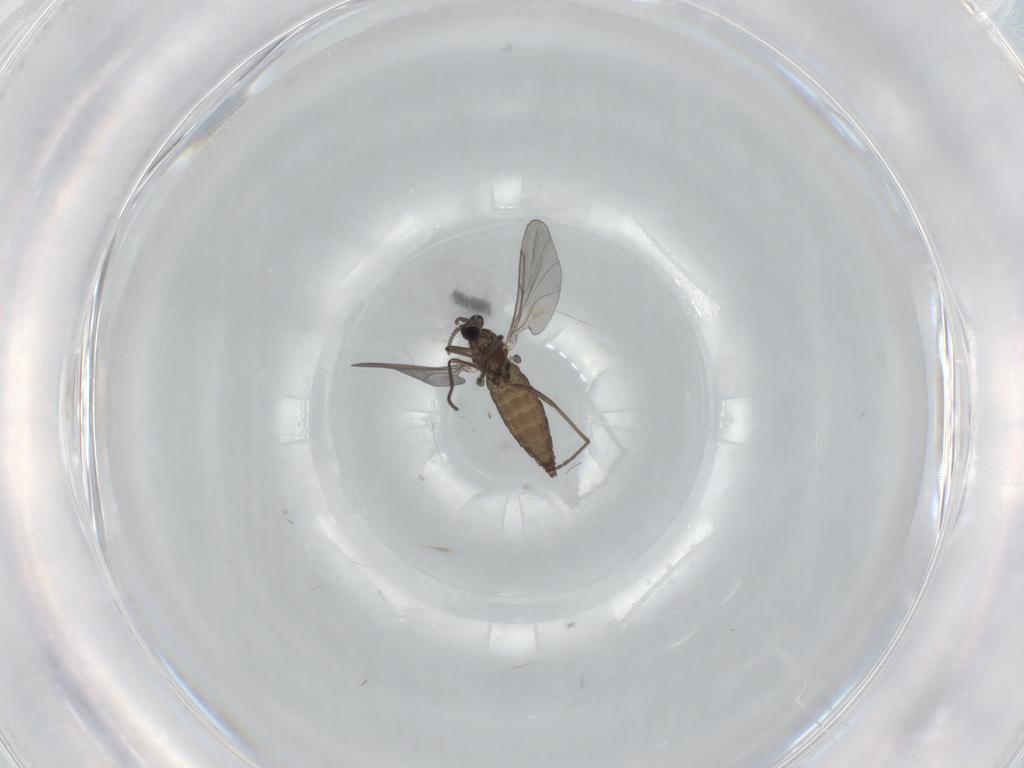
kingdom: Animalia
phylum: Arthropoda
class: Insecta
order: Diptera
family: Cecidomyiidae
